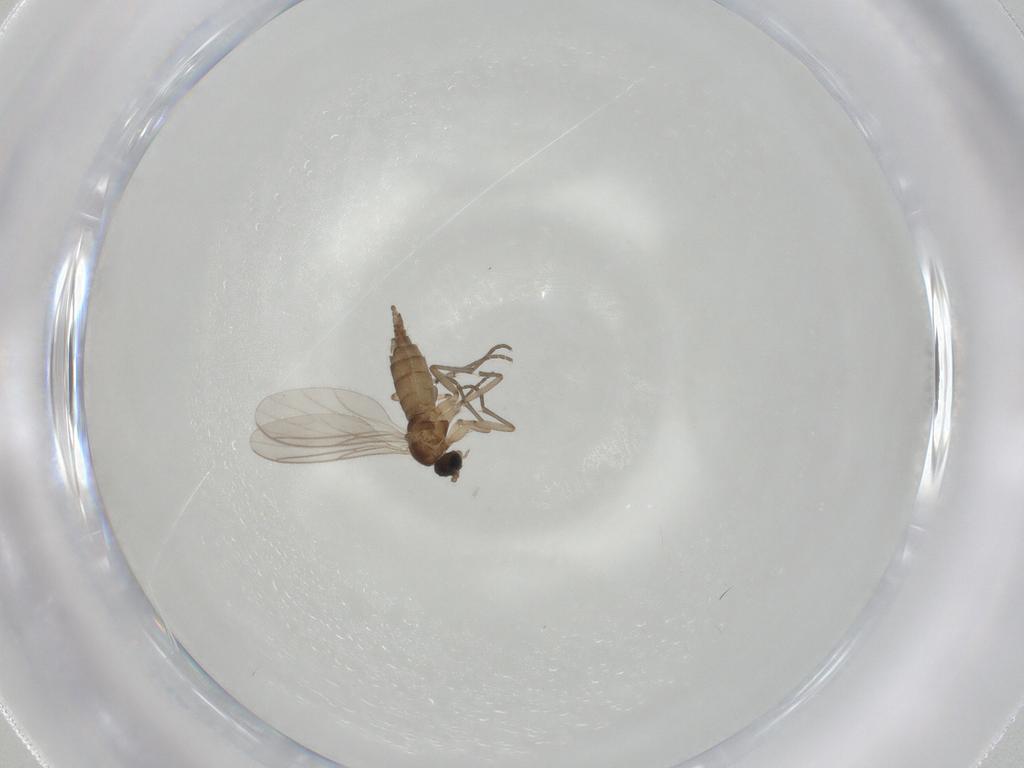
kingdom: Animalia
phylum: Arthropoda
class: Insecta
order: Diptera
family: Sciaridae
